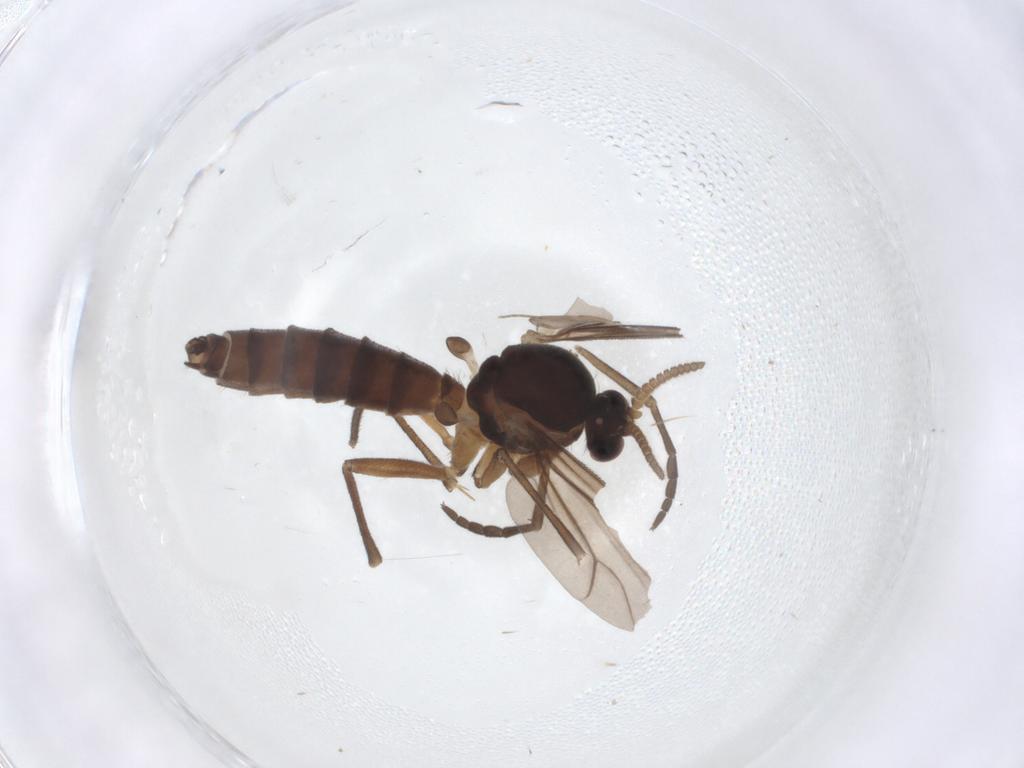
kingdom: Animalia
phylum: Arthropoda
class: Insecta
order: Diptera
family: Mycetophilidae
